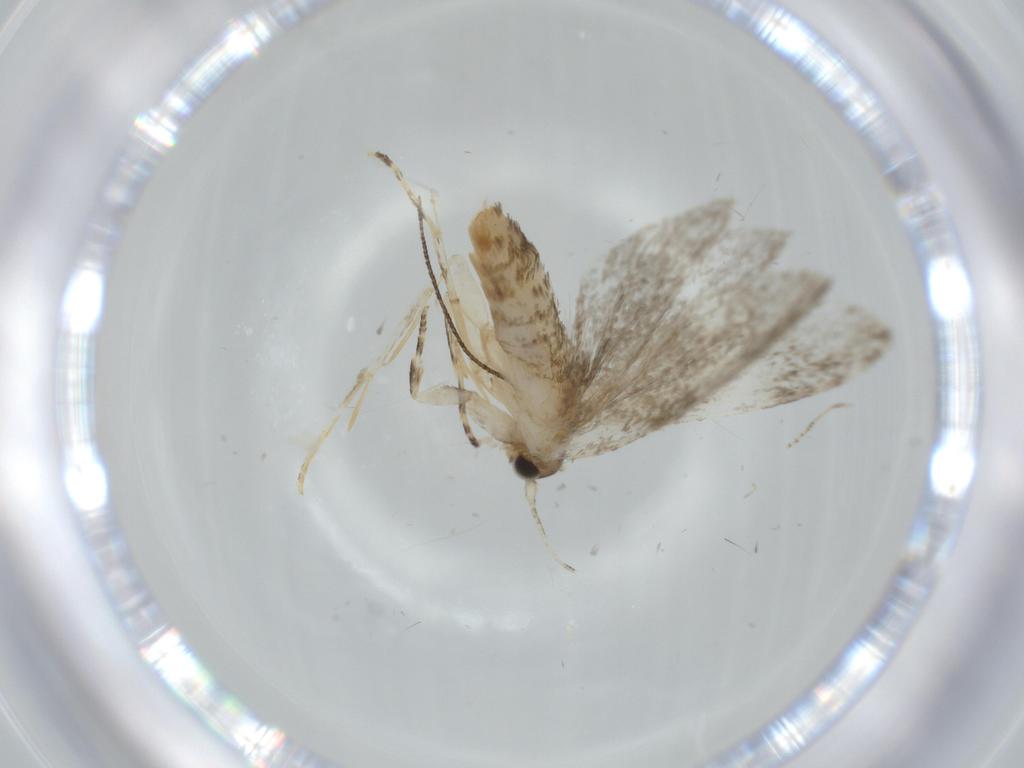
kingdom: Animalia
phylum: Arthropoda
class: Insecta
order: Lepidoptera
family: Tineidae
